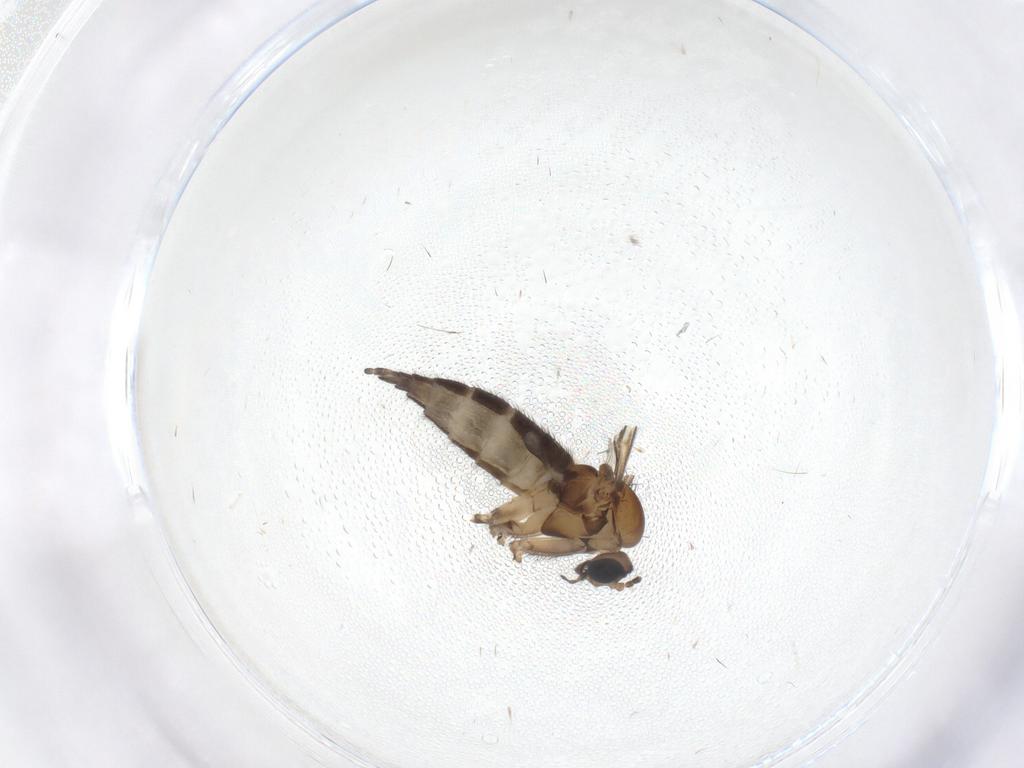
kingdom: Animalia
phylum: Arthropoda
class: Insecta
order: Diptera
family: Sciaridae
